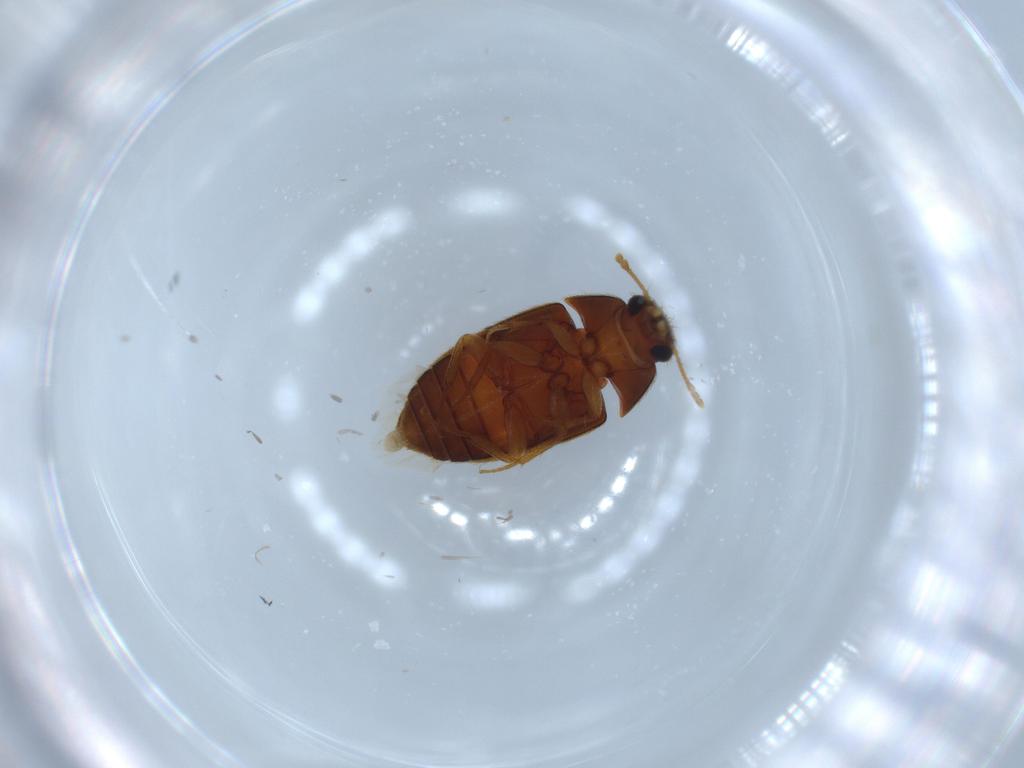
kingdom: Animalia
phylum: Arthropoda
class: Insecta
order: Coleoptera
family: Mycetophagidae
